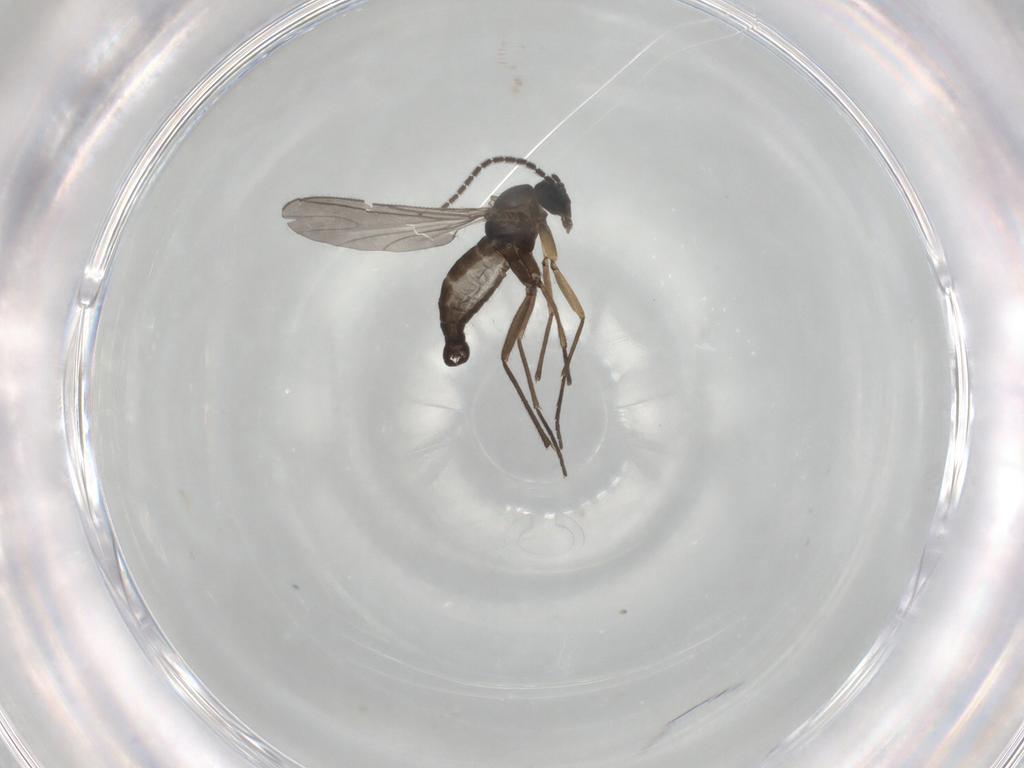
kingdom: Animalia
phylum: Arthropoda
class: Insecta
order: Diptera
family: Sciaridae
